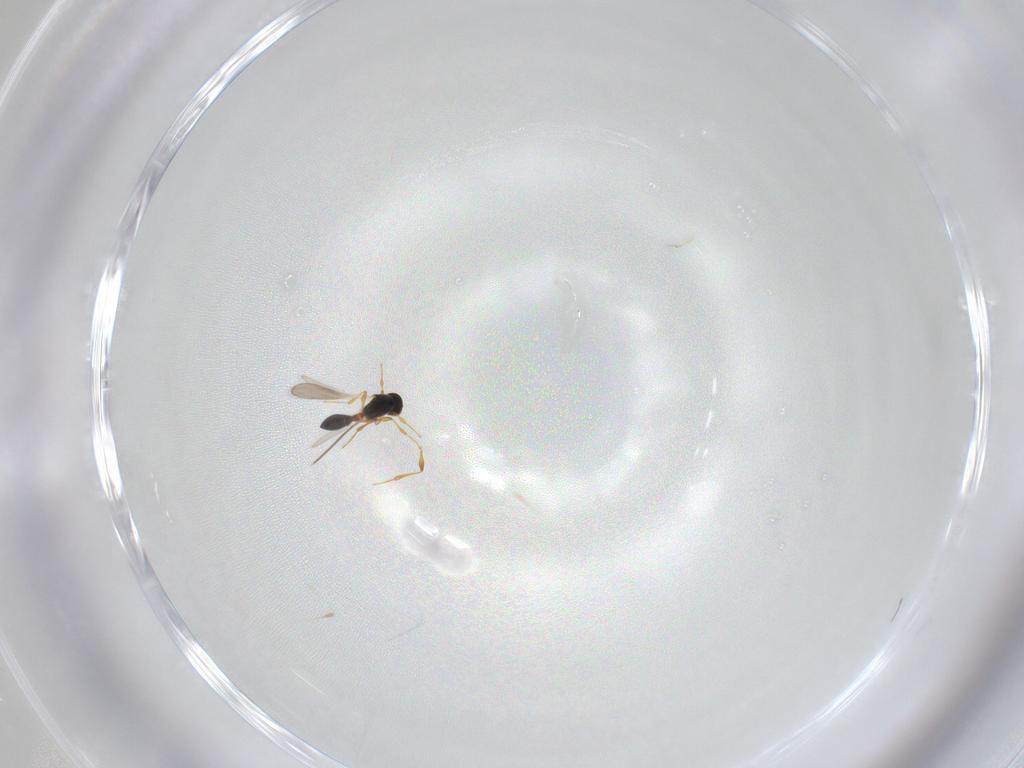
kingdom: Animalia
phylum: Arthropoda
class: Insecta
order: Hymenoptera
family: Platygastridae
